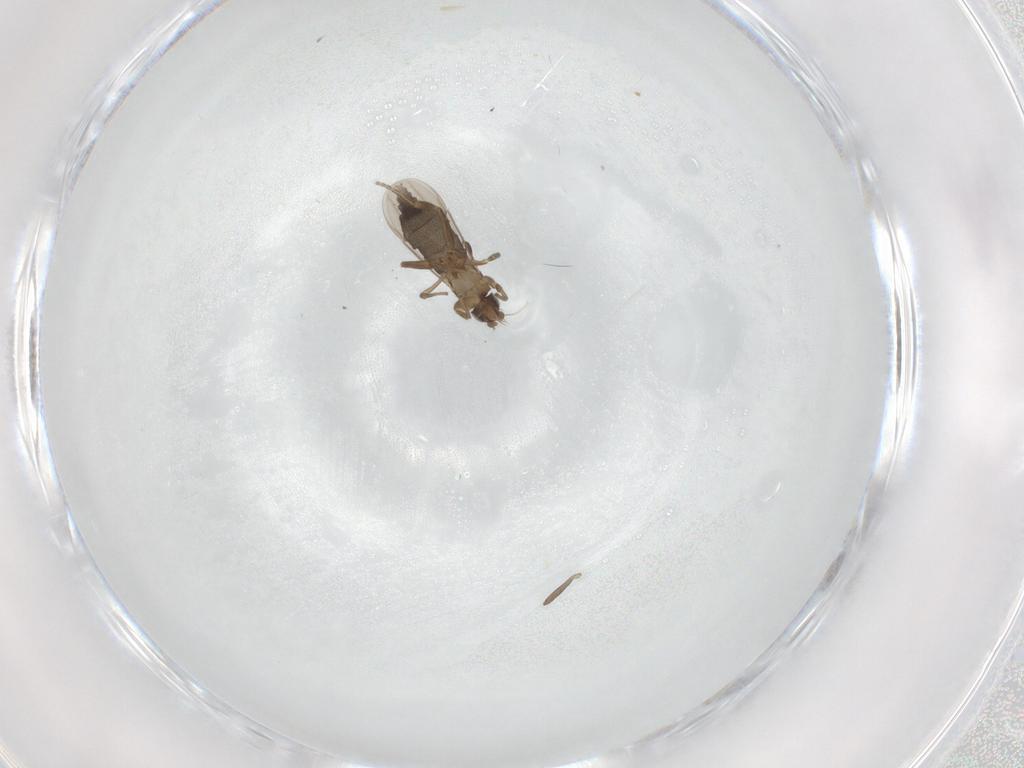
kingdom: Animalia
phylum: Arthropoda
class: Insecta
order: Diptera
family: Phoridae
